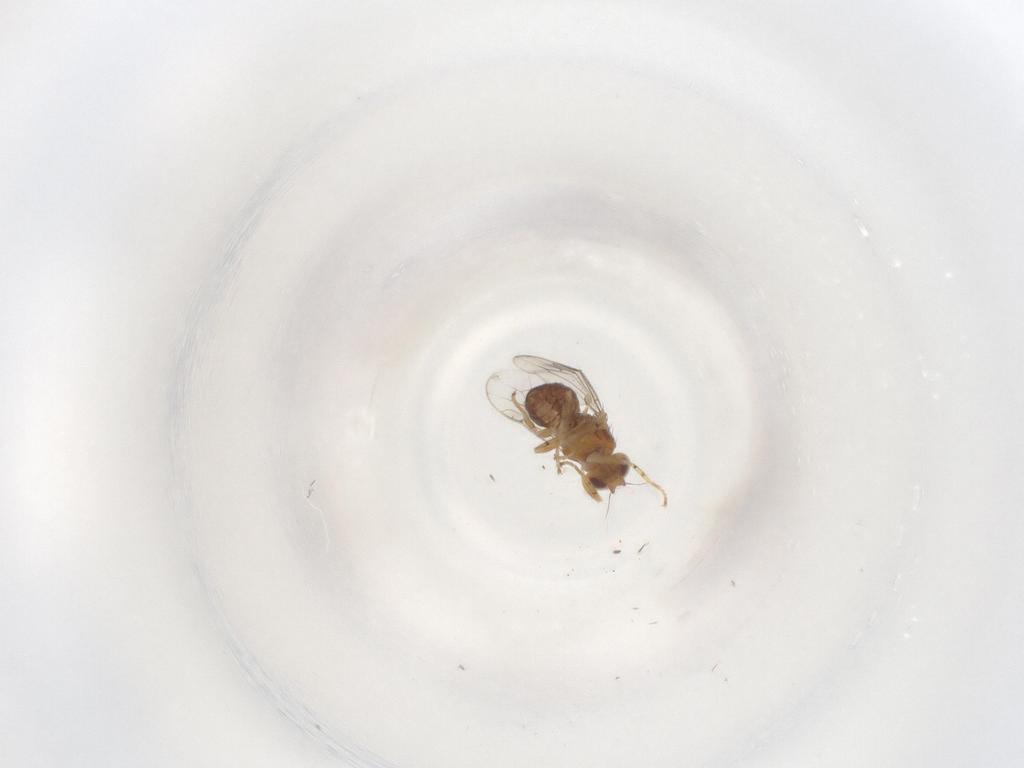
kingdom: Animalia
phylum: Arthropoda
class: Insecta
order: Diptera
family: Chloropidae
